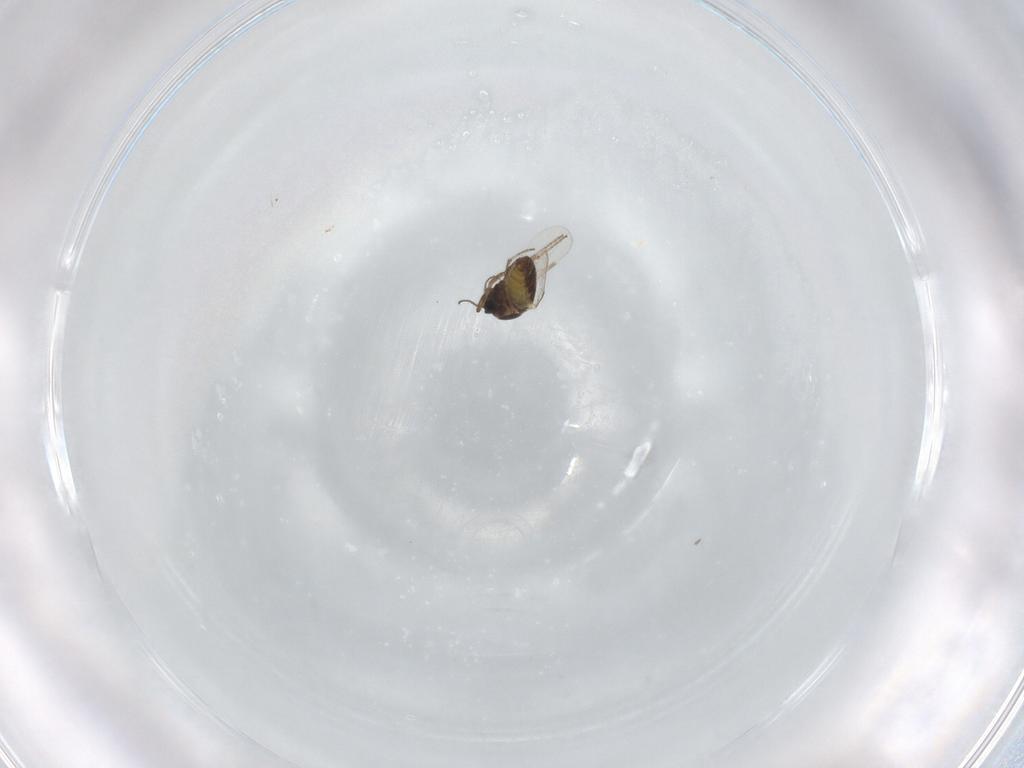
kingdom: Animalia
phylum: Arthropoda
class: Insecta
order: Diptera
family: Ceratopogonidae
